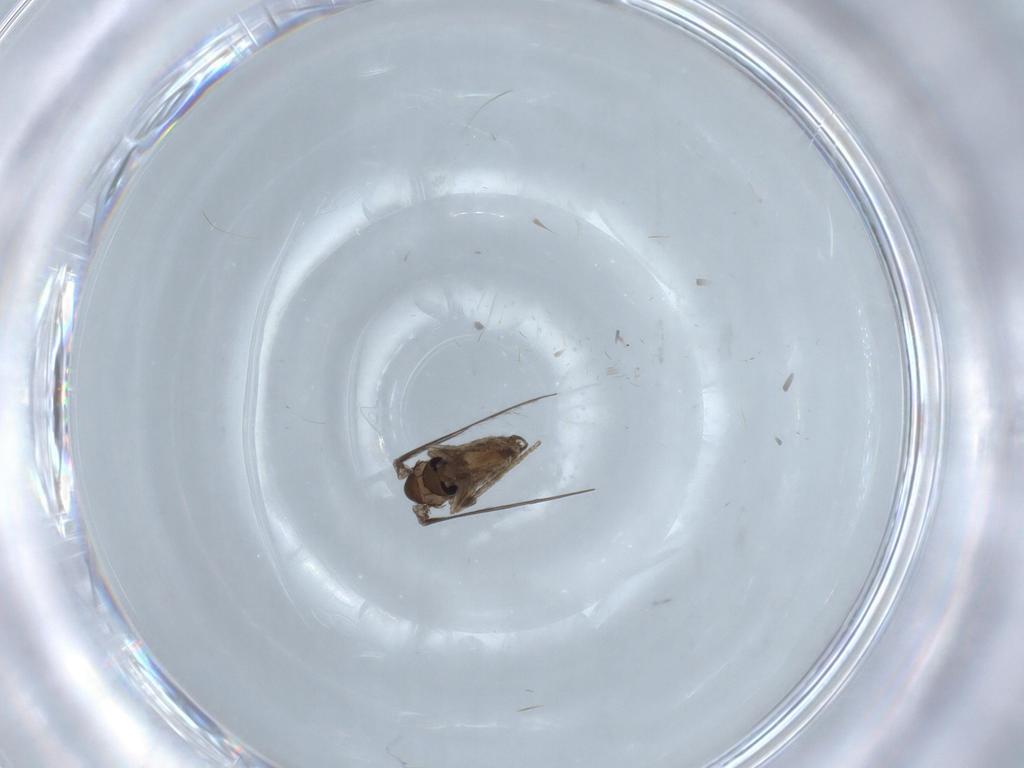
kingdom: Animalia
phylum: Arthropoda
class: Insecta
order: Diptera
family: Psychodidae
